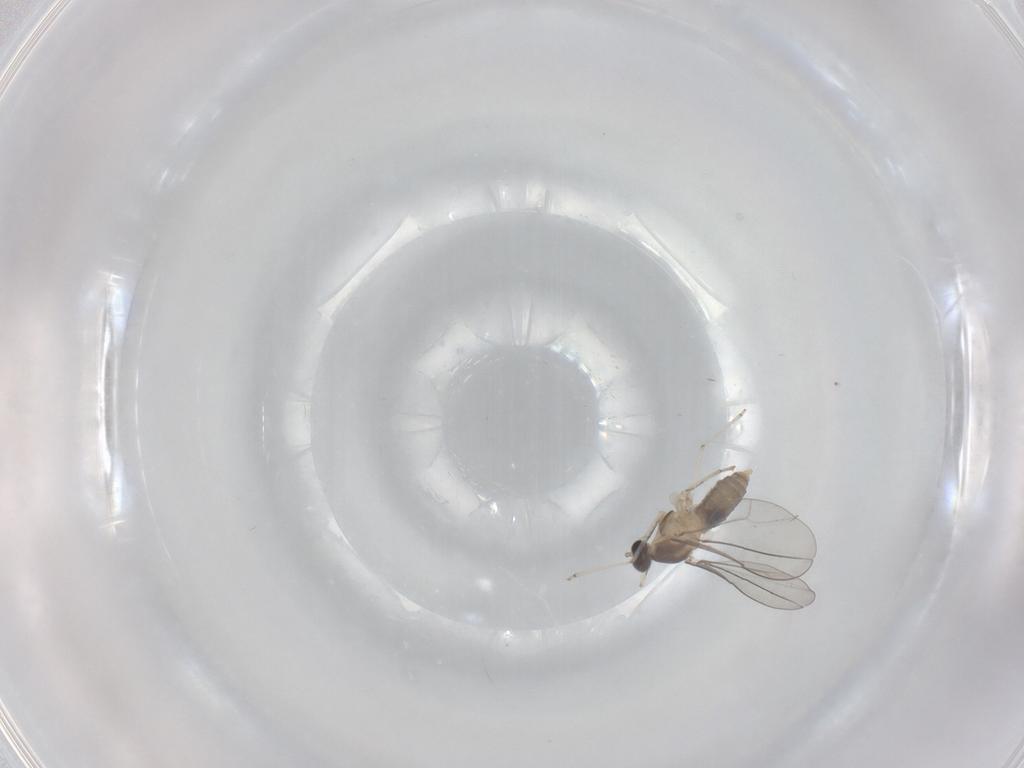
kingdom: Animalia
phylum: Arthropoda
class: Insecta
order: Diptera
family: Cecidomyiidae
